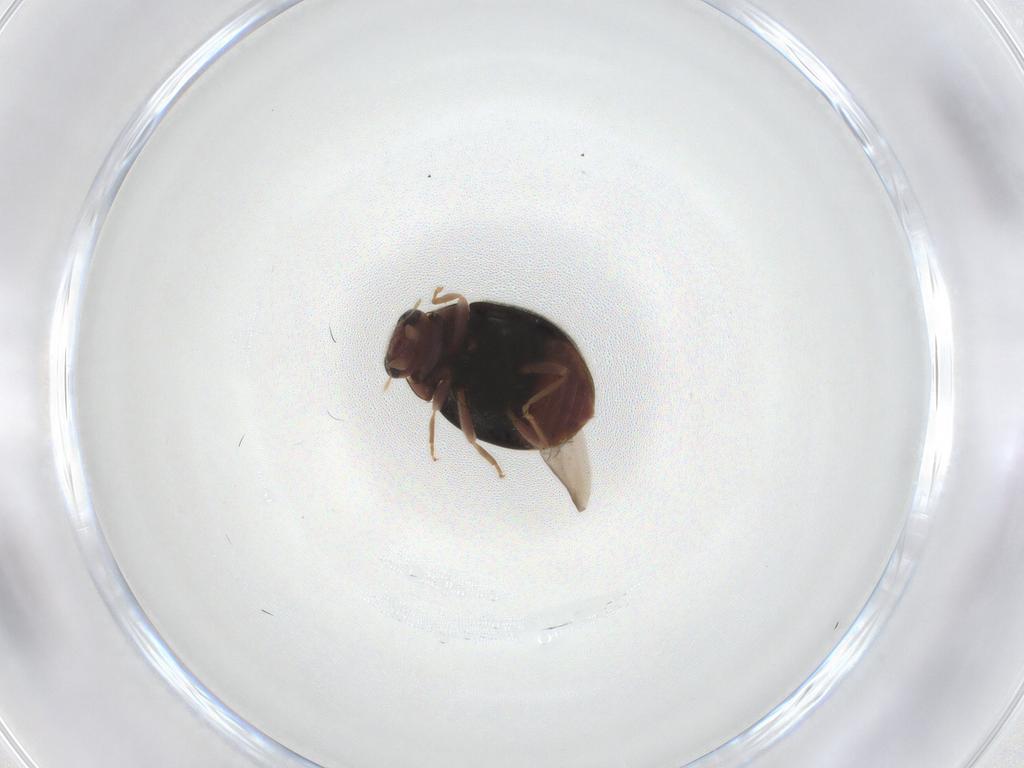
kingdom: Animalia
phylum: Arthropoda
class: Insecta
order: Coleoptera
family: Coccinellidae
